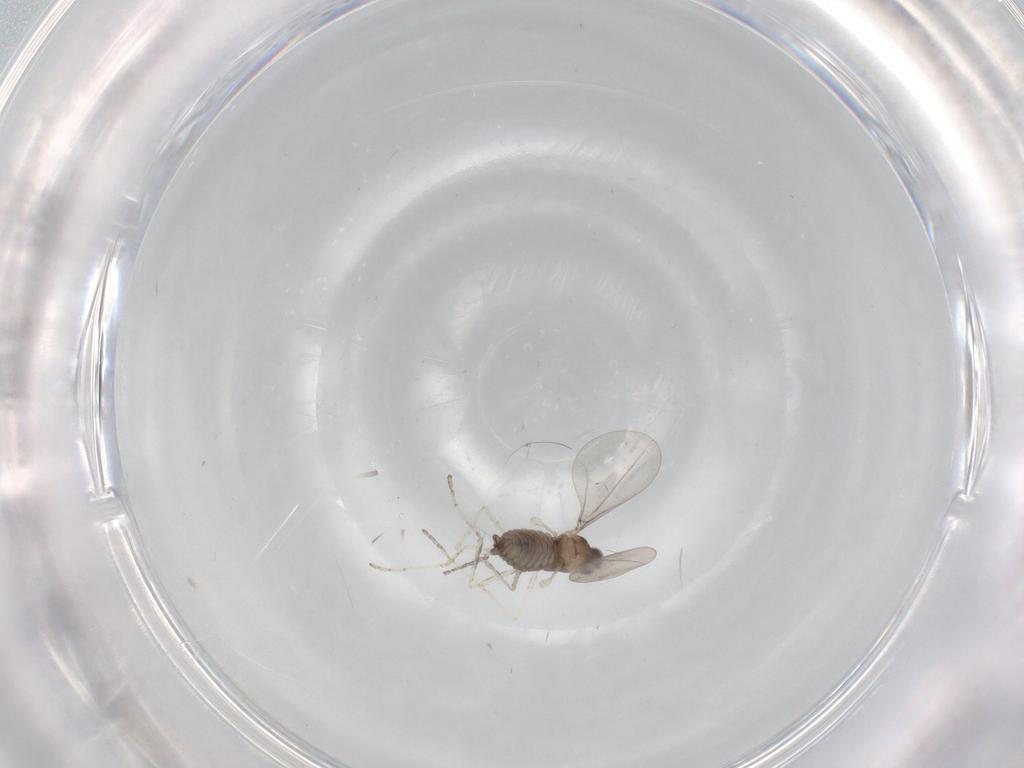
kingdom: Animalia
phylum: Arthropoda
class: Insecta
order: Diptera
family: Cecidomyiidae
